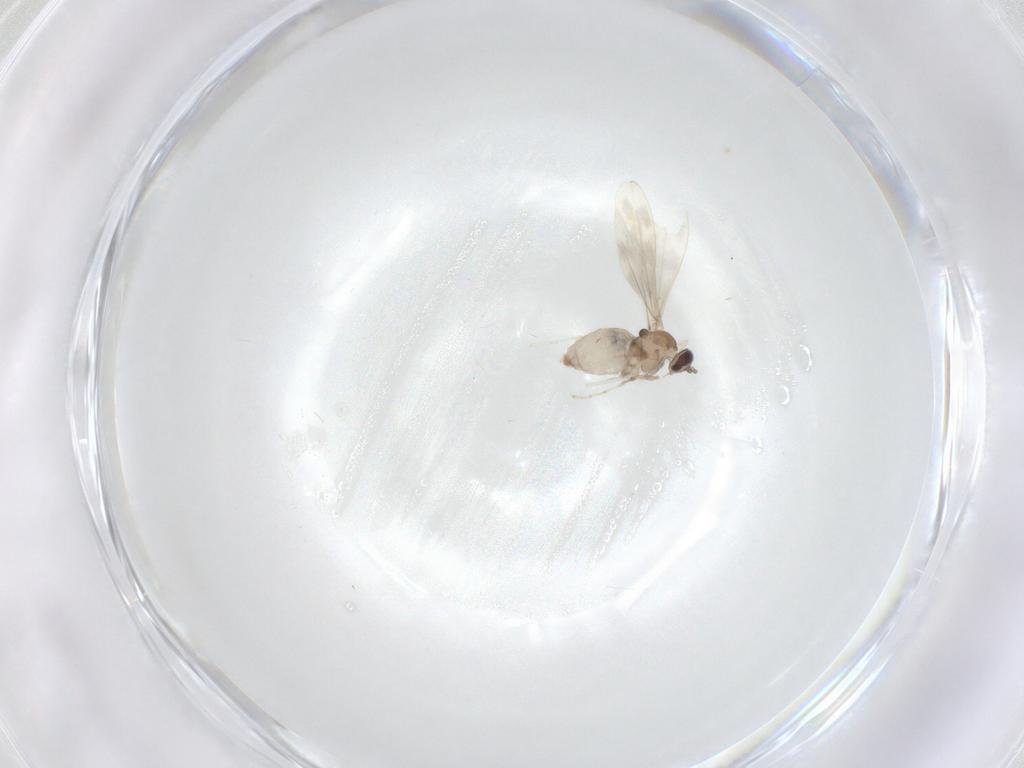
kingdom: Animalia
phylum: Arthropoda
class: Insecta
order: Diptera
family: Cecidomyiidae
